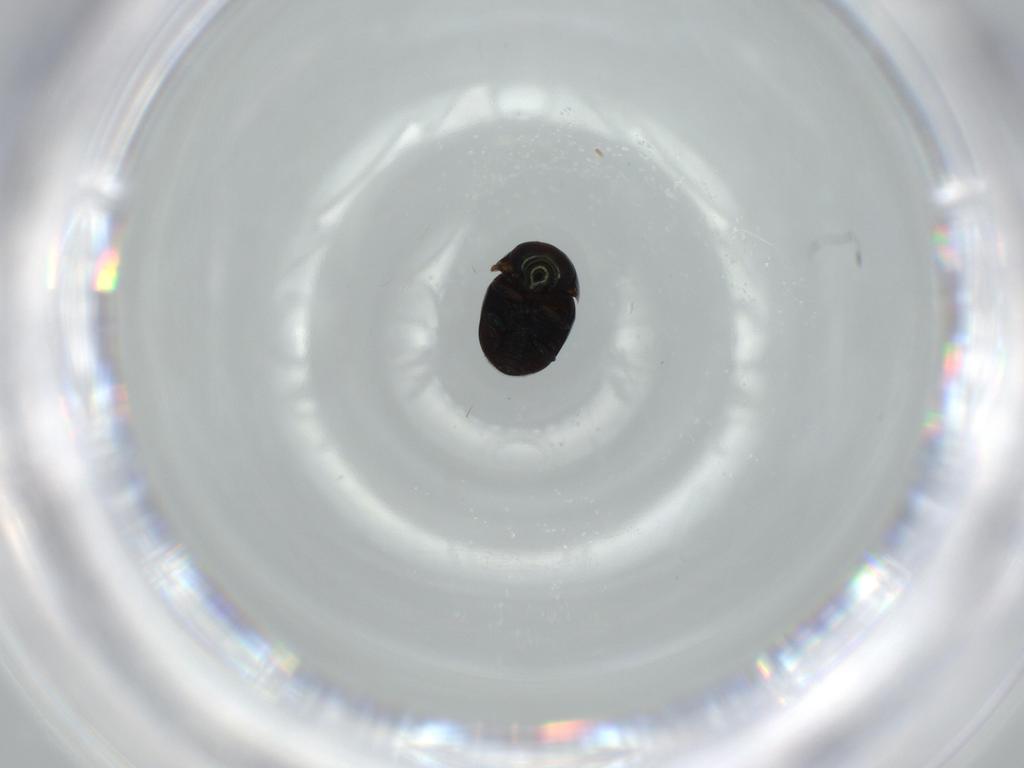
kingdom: Animalia
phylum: Arthropoda
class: Insecta
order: Coleoptera
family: Cybocephalidae
